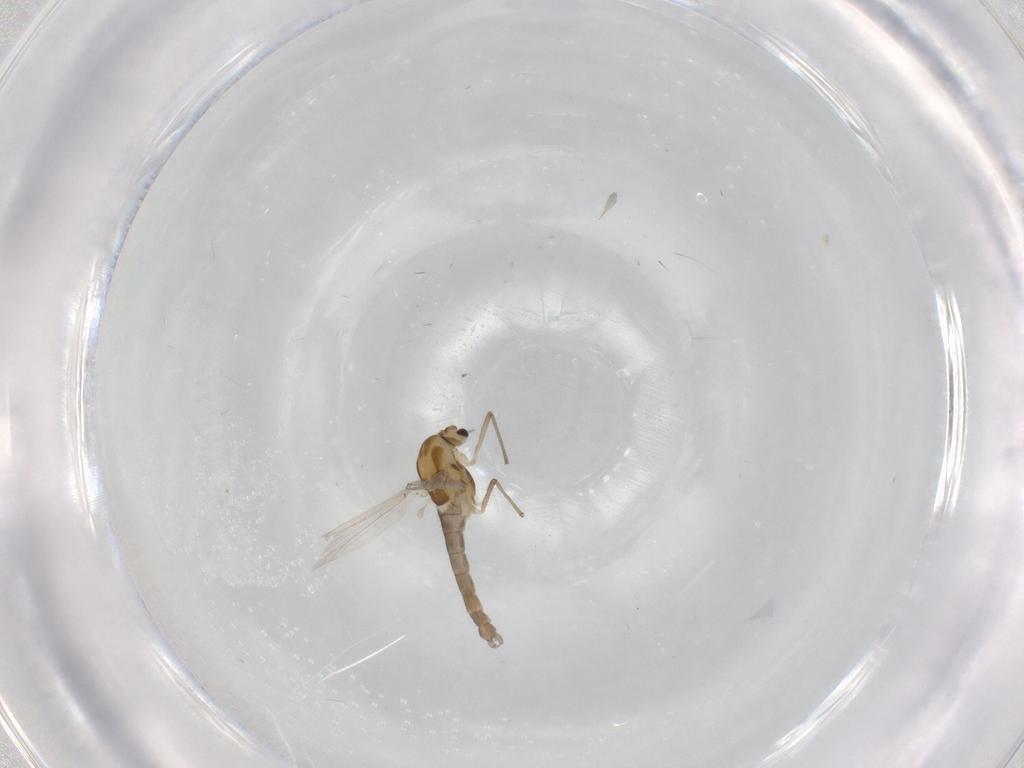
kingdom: Animalia
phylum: Arthropoda
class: Insecta
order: Diptera
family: Chironomidae
